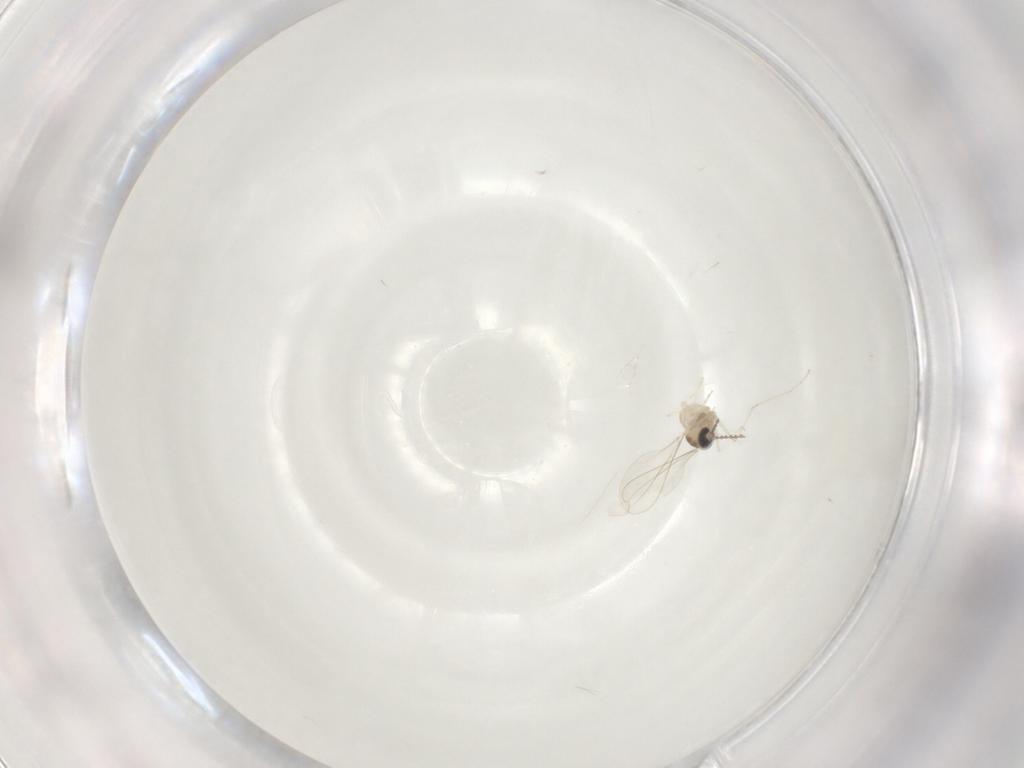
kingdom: Animalia
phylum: Arthropoda
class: Insecta
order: Diptera
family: Cecidomyiidae
